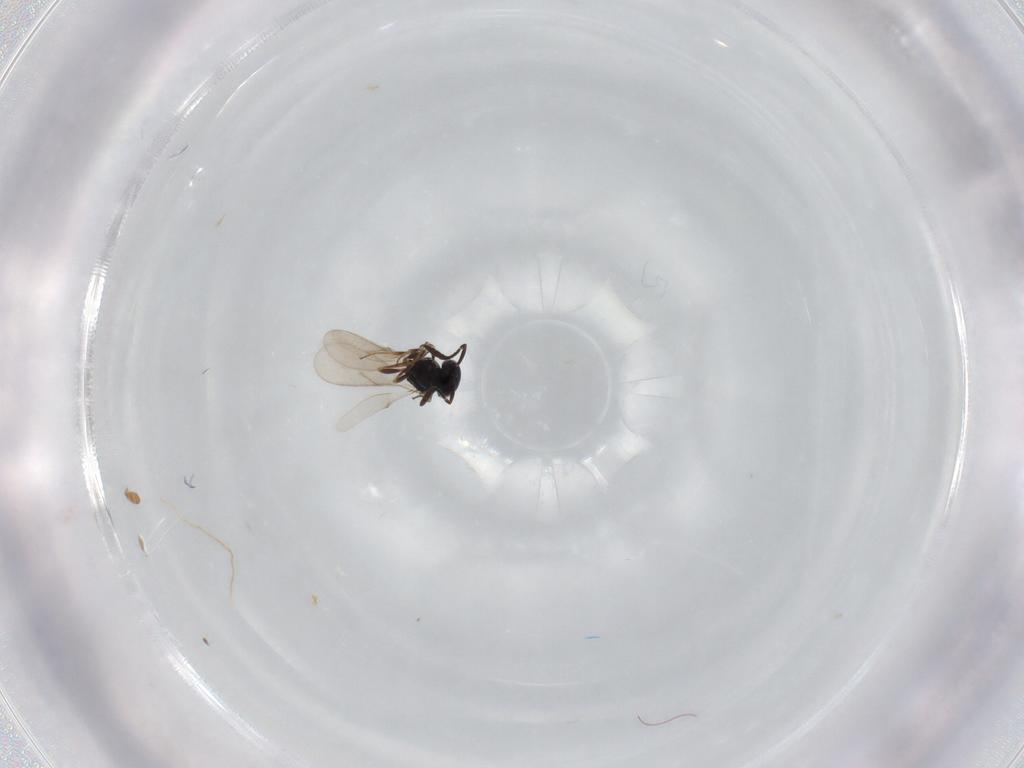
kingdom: Animalia
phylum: Arthropoda
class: Insecta
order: Hymenoptera
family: Scelionidae
